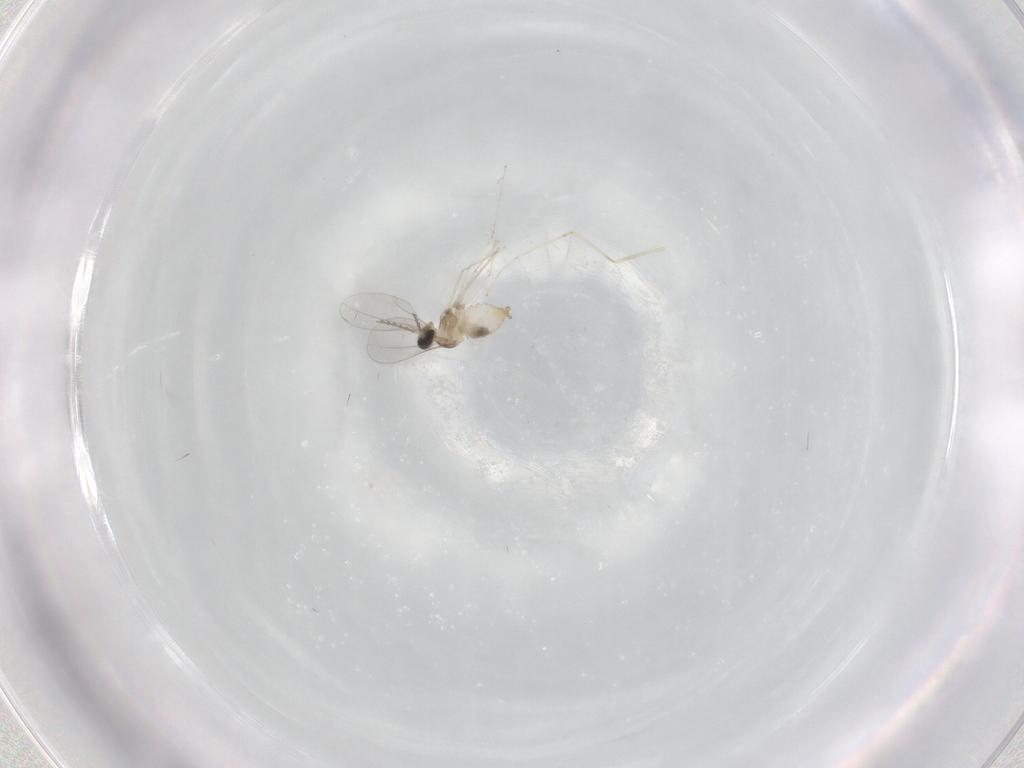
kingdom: Animalia
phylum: Arthropoda
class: Insecta
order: Diptera
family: Cecidomyiidae
